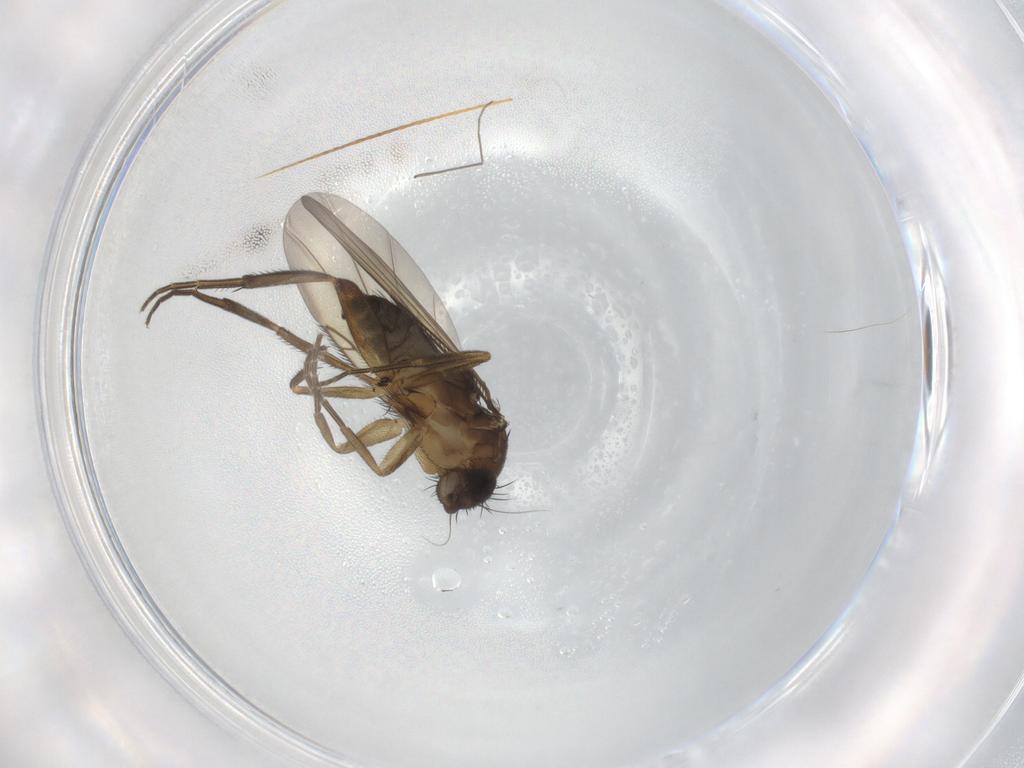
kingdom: Animalia
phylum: Arthropoda
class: Insecta
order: Diptera
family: Phoridae
